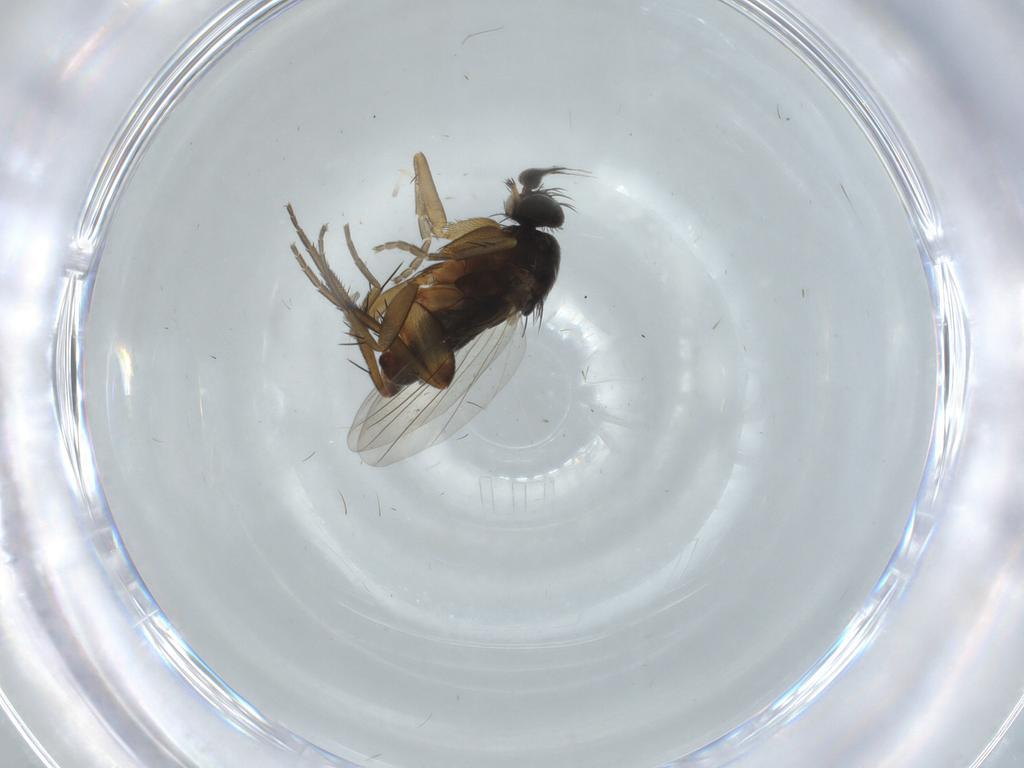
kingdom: Animalia
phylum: Arthropoda
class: Insecta
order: Diptera
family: Phoridae
